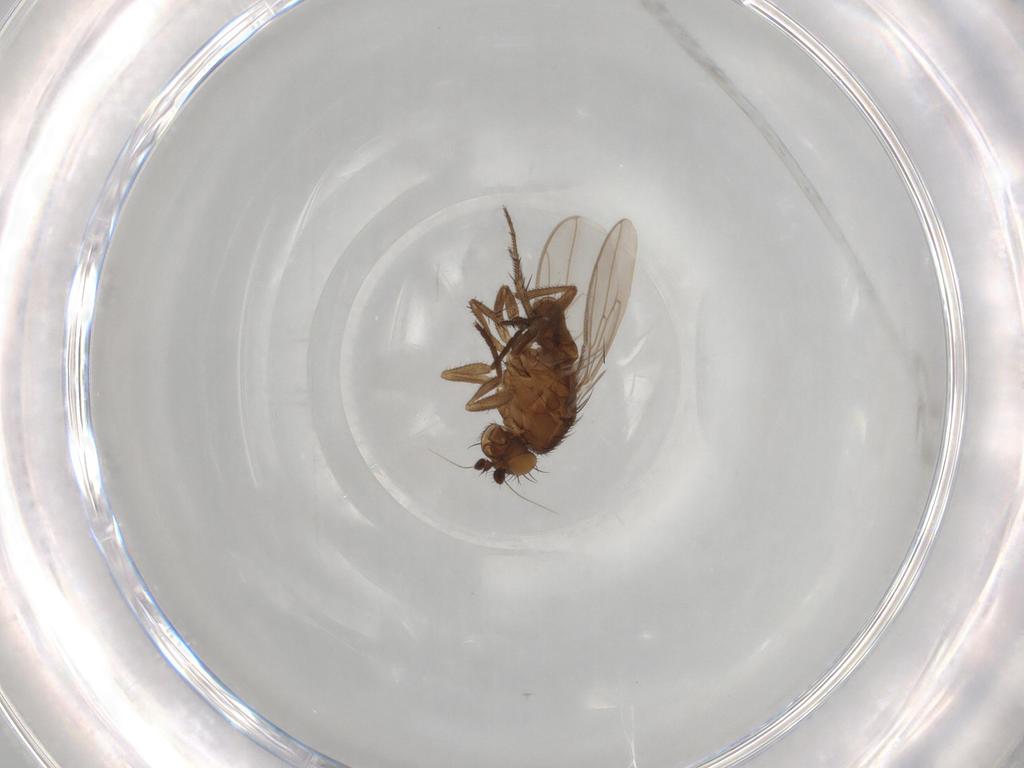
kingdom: Animalia
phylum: Arthropoda
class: Insecta
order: Diptera
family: Sphaeroceridae
